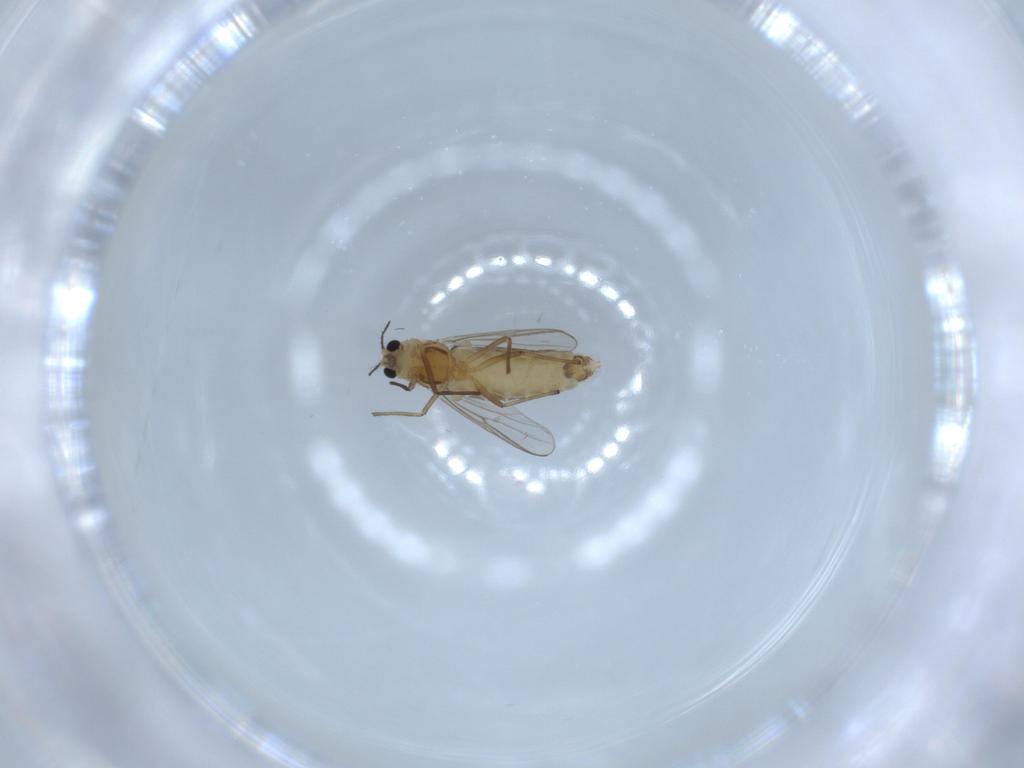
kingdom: Animalia
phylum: Arthropoda
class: Insecta
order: Diptera
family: Chironomidae
